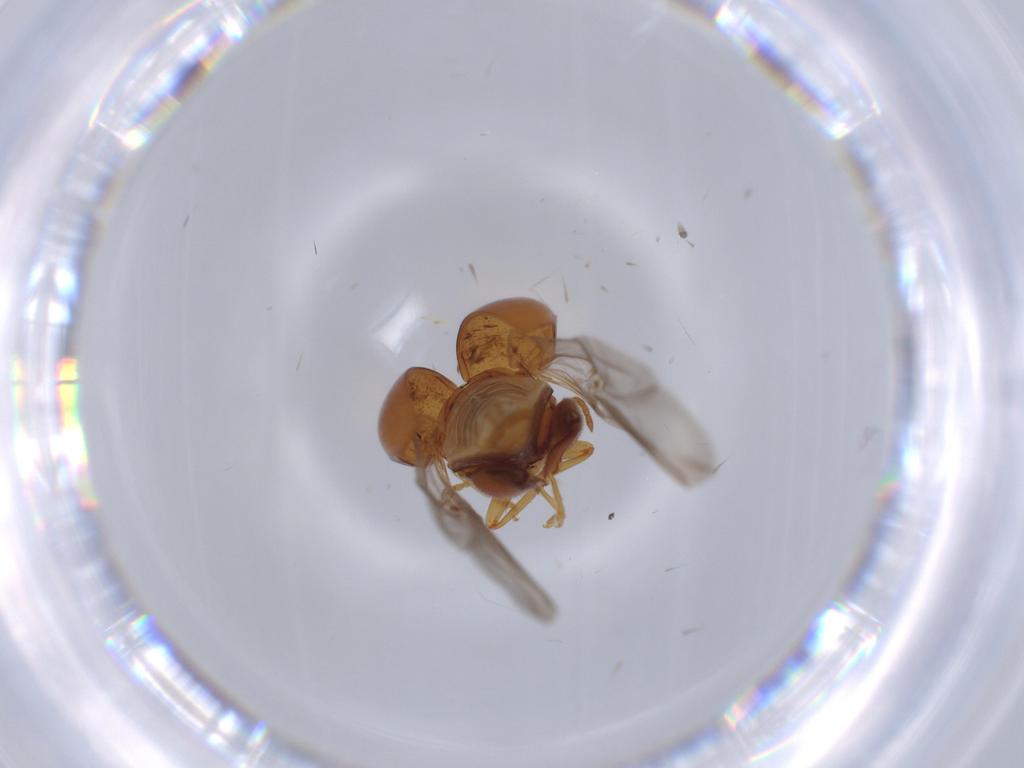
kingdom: Animalia
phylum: Arthropoda
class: Insecta
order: Coleoptera
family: Chrysomelidae
